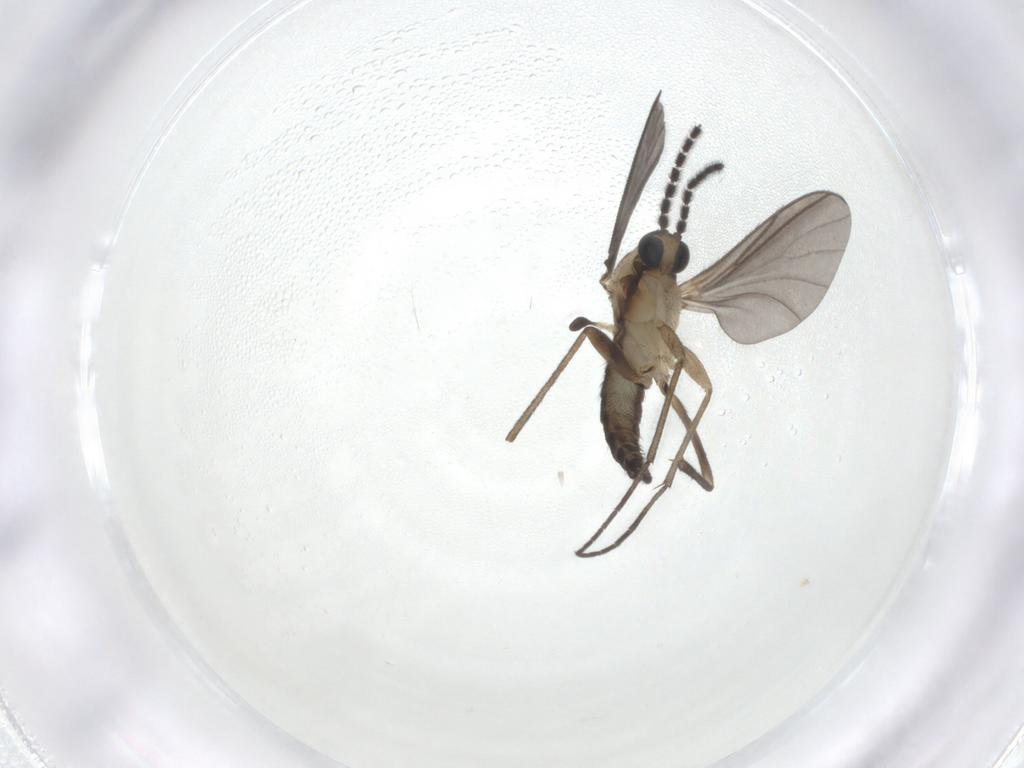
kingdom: Animalia
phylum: Arthropoda
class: Insecta
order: Diptera
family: Sciaridae
